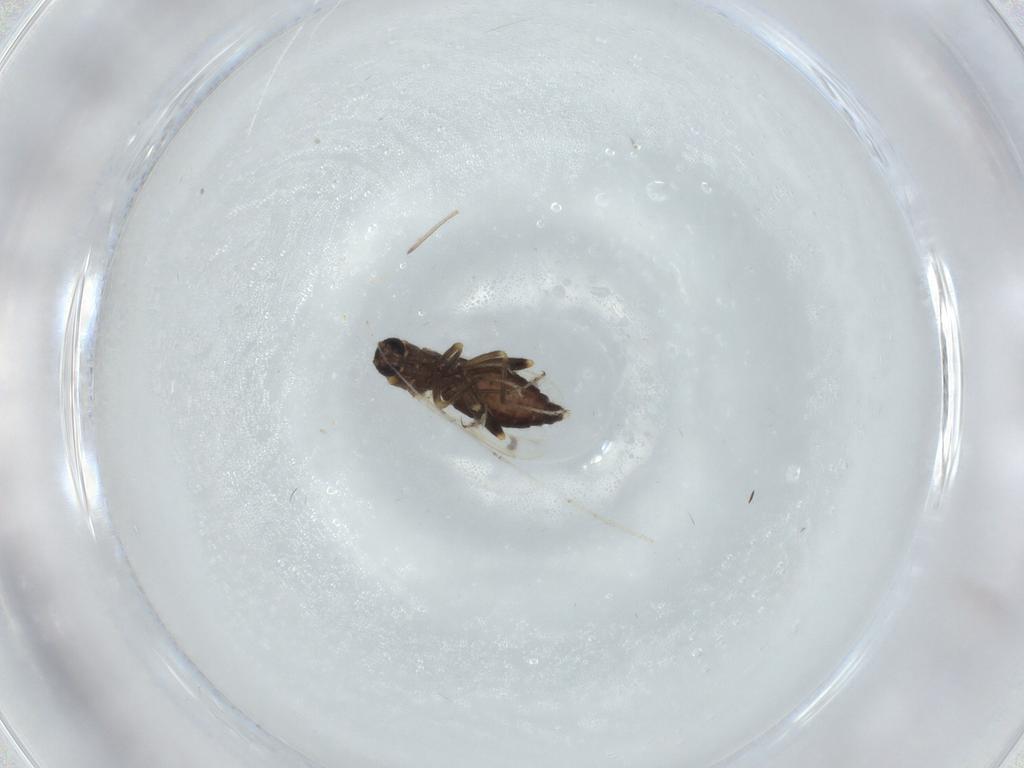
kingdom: Animalia
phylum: Arthropoda
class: Insecta
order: Diptera
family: Ceratopogonidae
